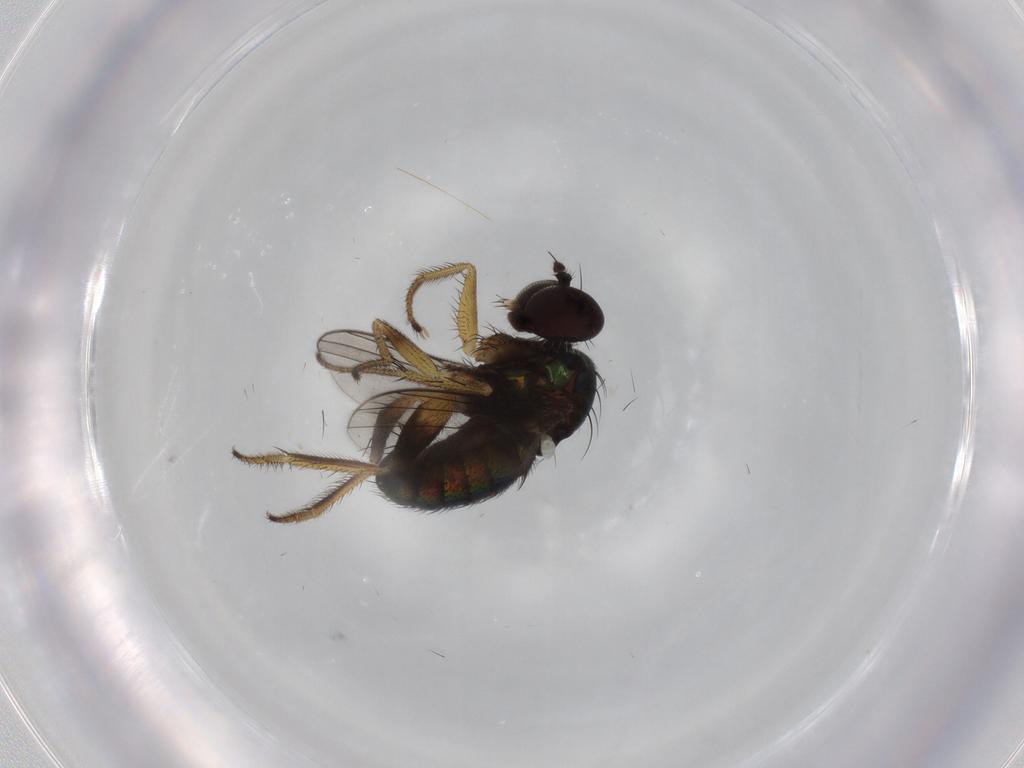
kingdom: Animalia
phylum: Arthropoda
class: Insecta
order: Diptera
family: Dolichopodidae
